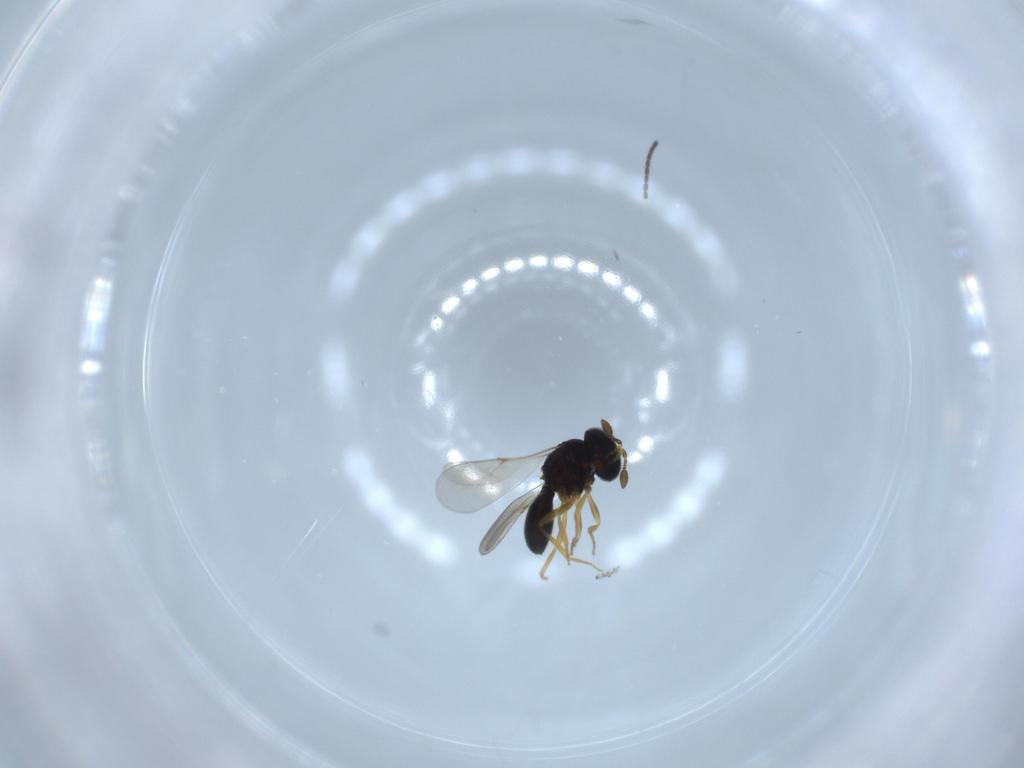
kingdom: Animalia
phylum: Arthropoda
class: Insecta
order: Hymenoptera
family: Scelionidae
